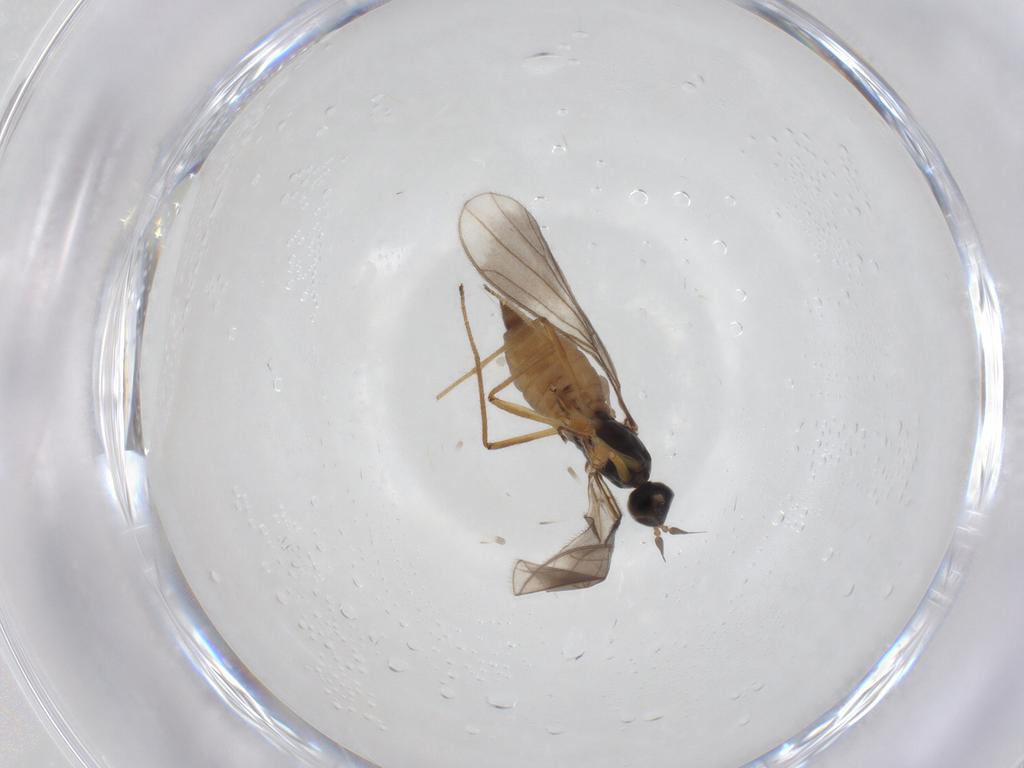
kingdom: Animalia
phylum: Arthropoda
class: Insecta
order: Diptera
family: Empididae
